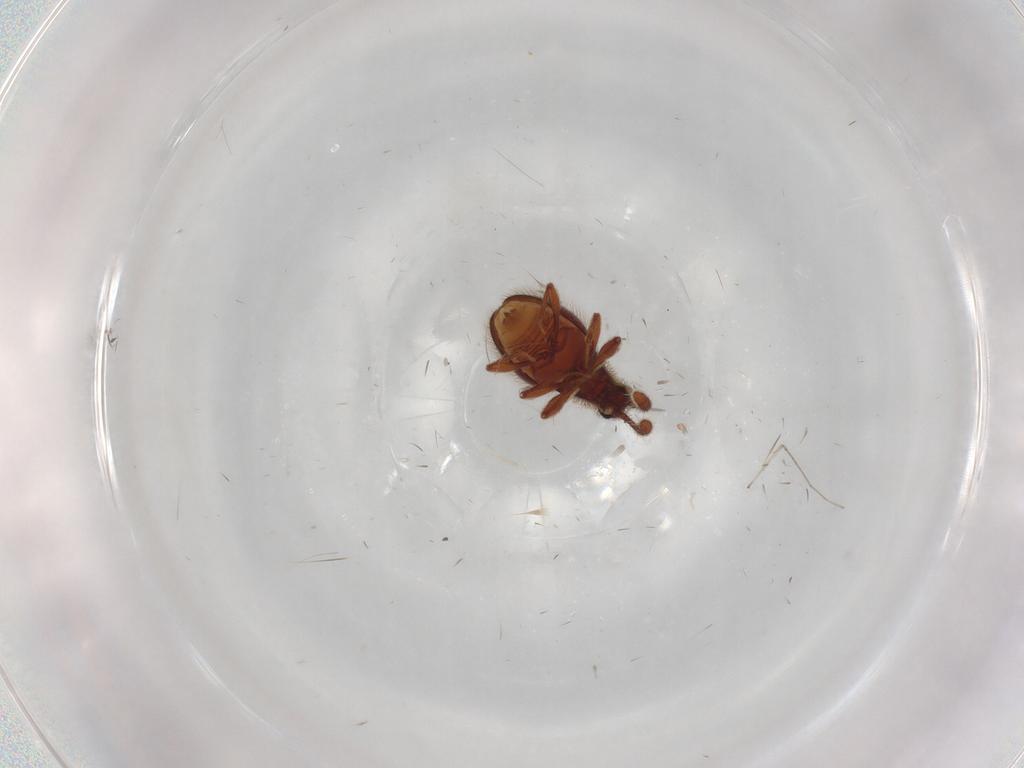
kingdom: Animalia
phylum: Arthropoda
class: Insecta
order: Coleoptera
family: Staphylinidae
